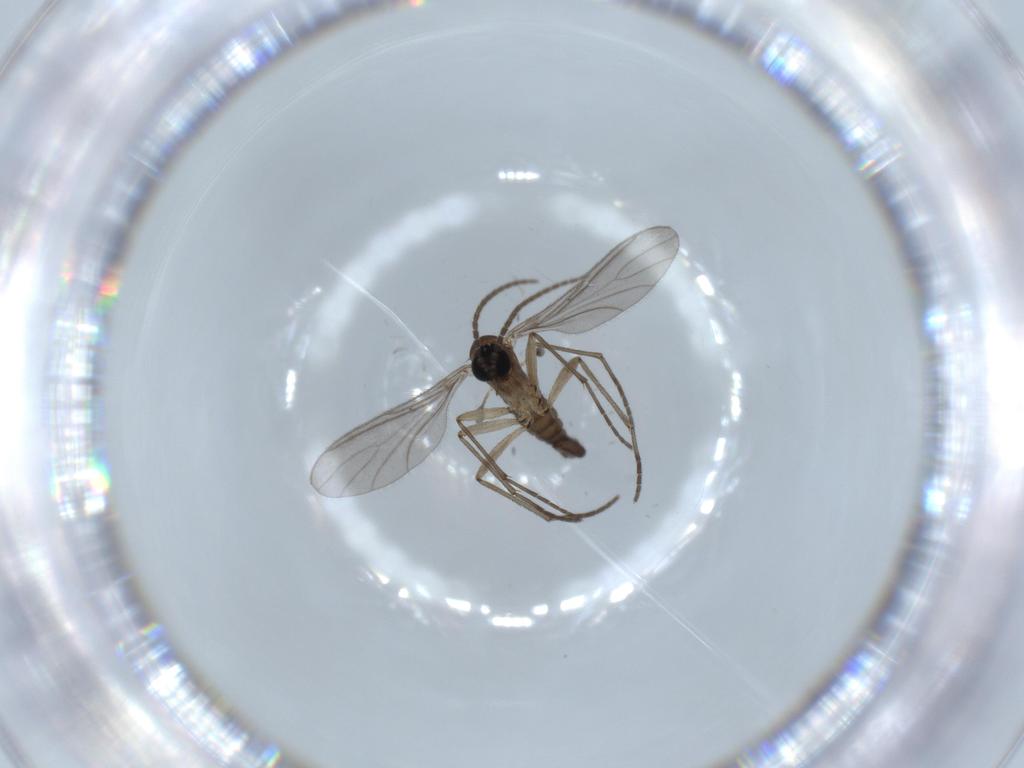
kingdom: Animalia
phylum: Arthropoda
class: Insecta
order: Diptera
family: Sciaridae
